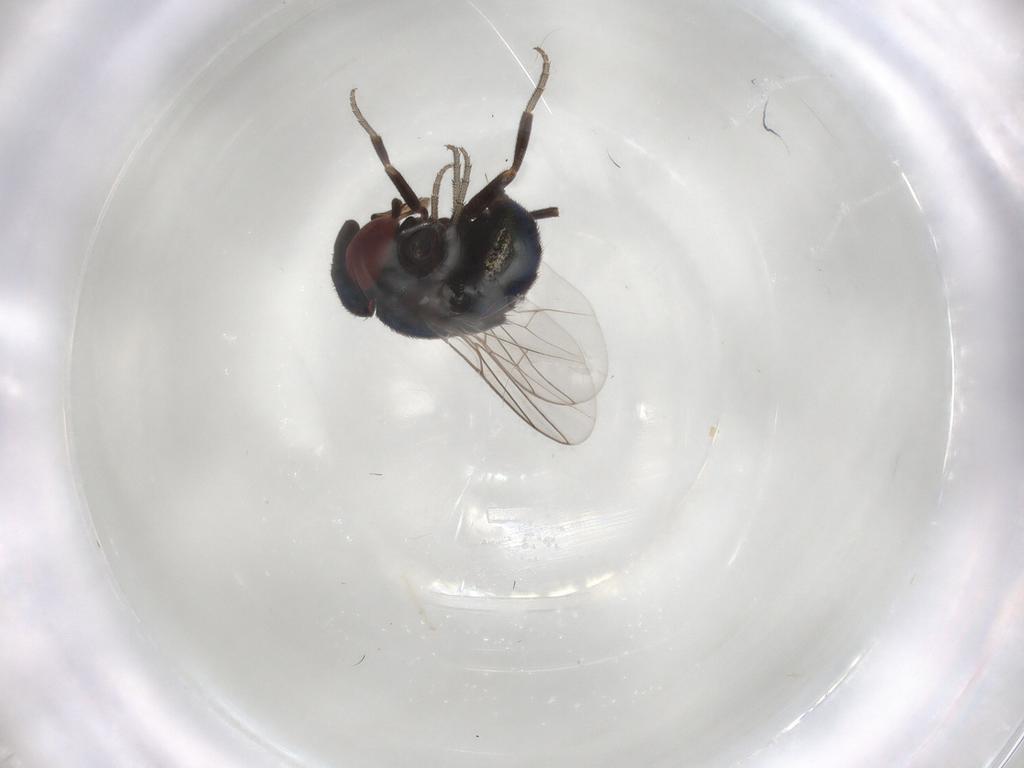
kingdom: Animalia
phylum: Arthropoda
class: Insecta
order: Diptera
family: Cryptochetidae
